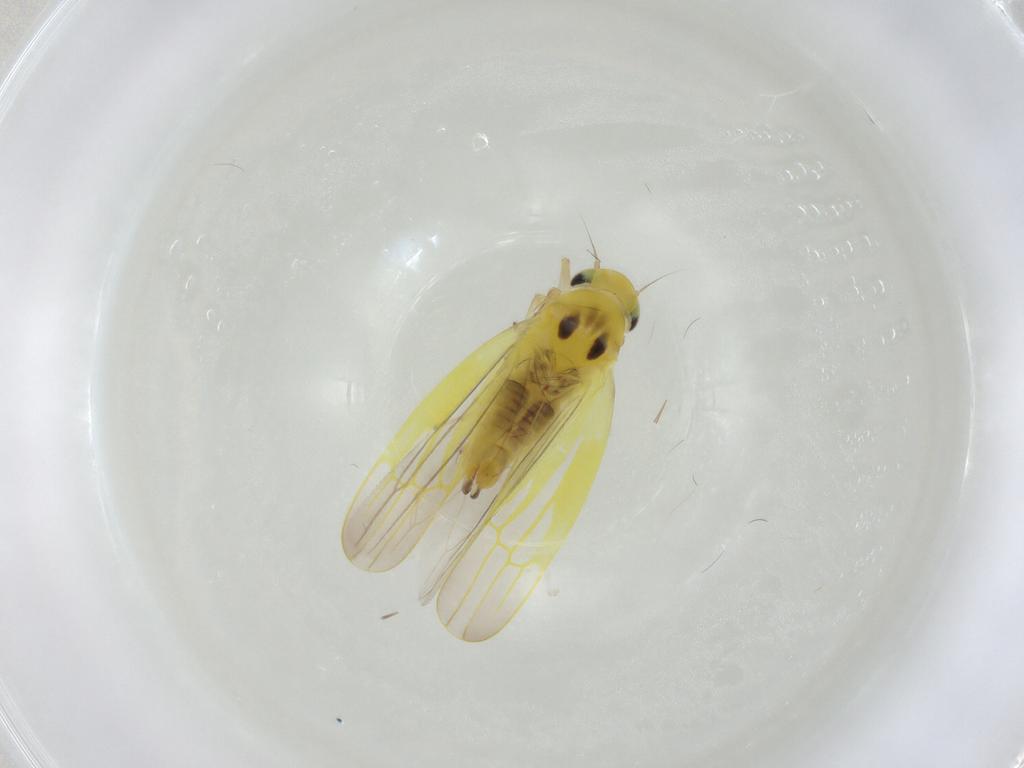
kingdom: Animalia
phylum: Arthropoda
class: Insecta
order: Hemiptera
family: Cicadellidae
